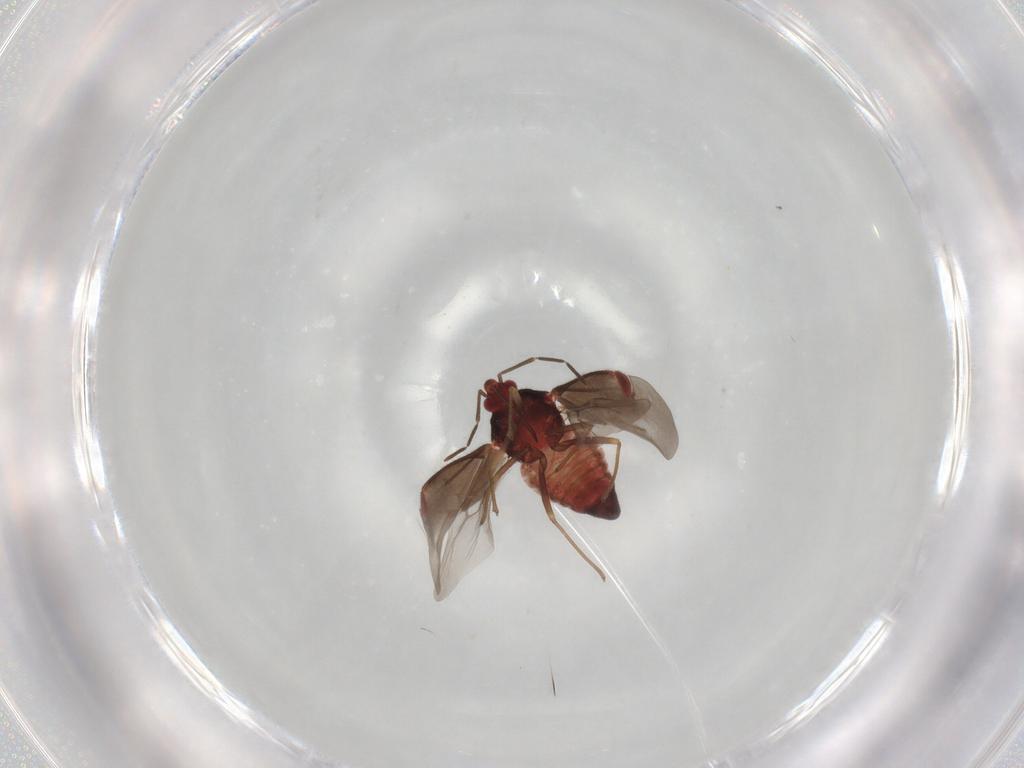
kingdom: Animalia
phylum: Arthropoda
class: Insecta
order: Hemiptera
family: Microphysidae
